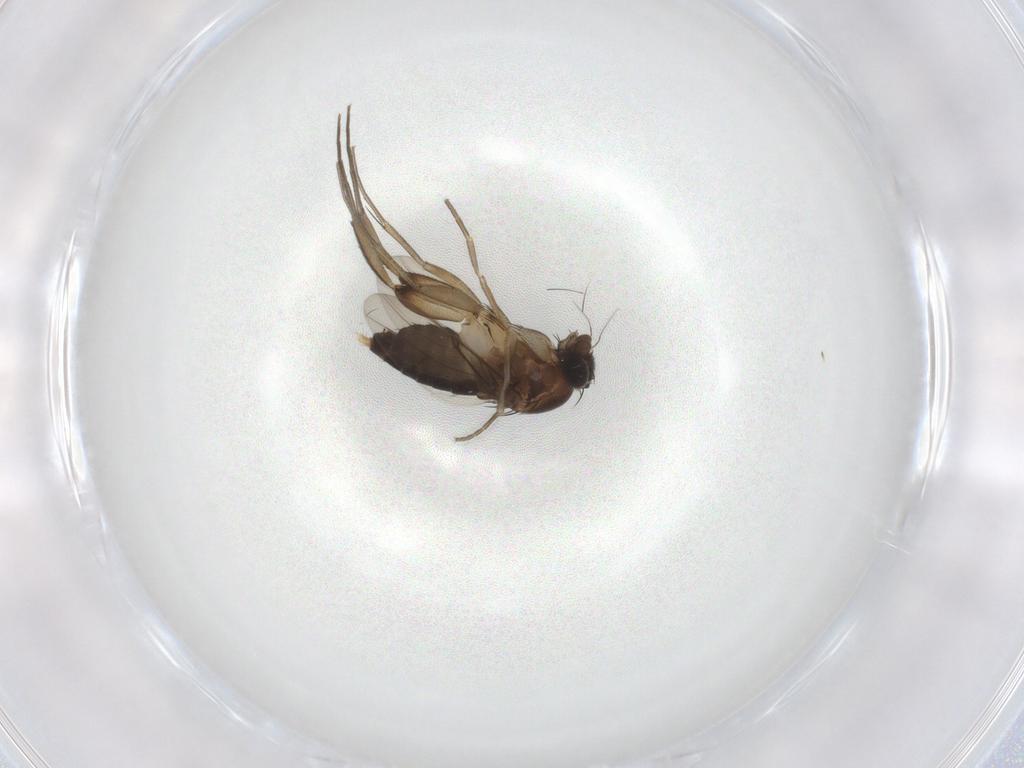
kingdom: Animalia
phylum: Arthropoda
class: Insecta
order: Diptera
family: Phoridae
